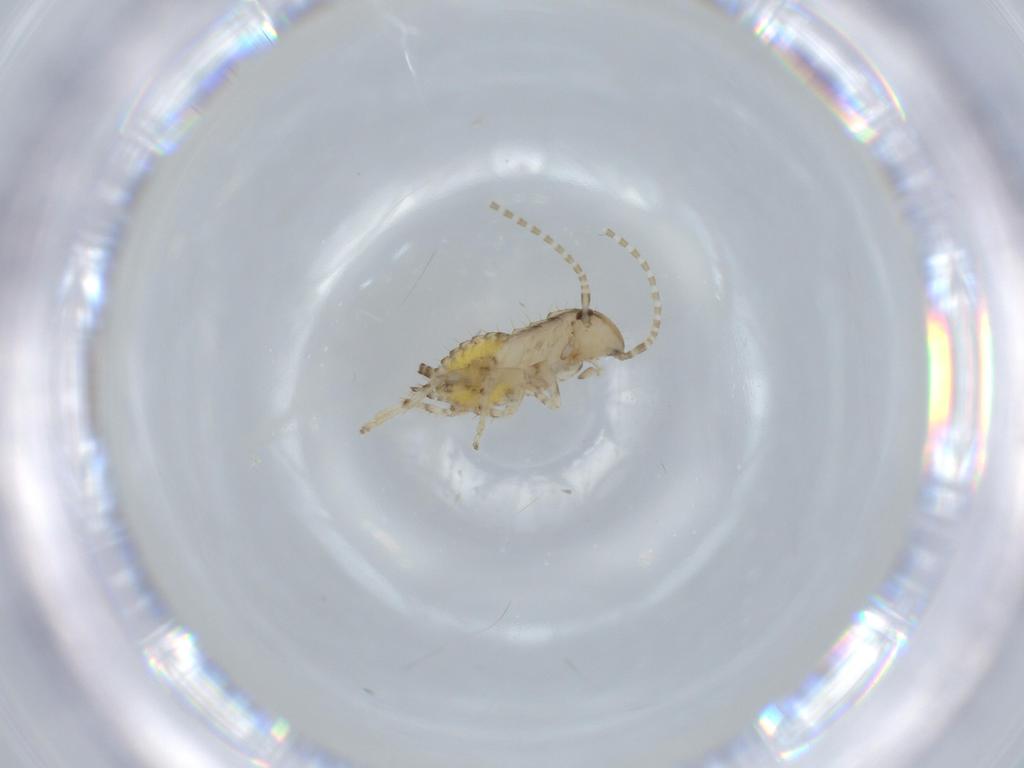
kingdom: Animalia
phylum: Arthropoda
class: Insecta
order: Blattodea
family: Ectobiidae
